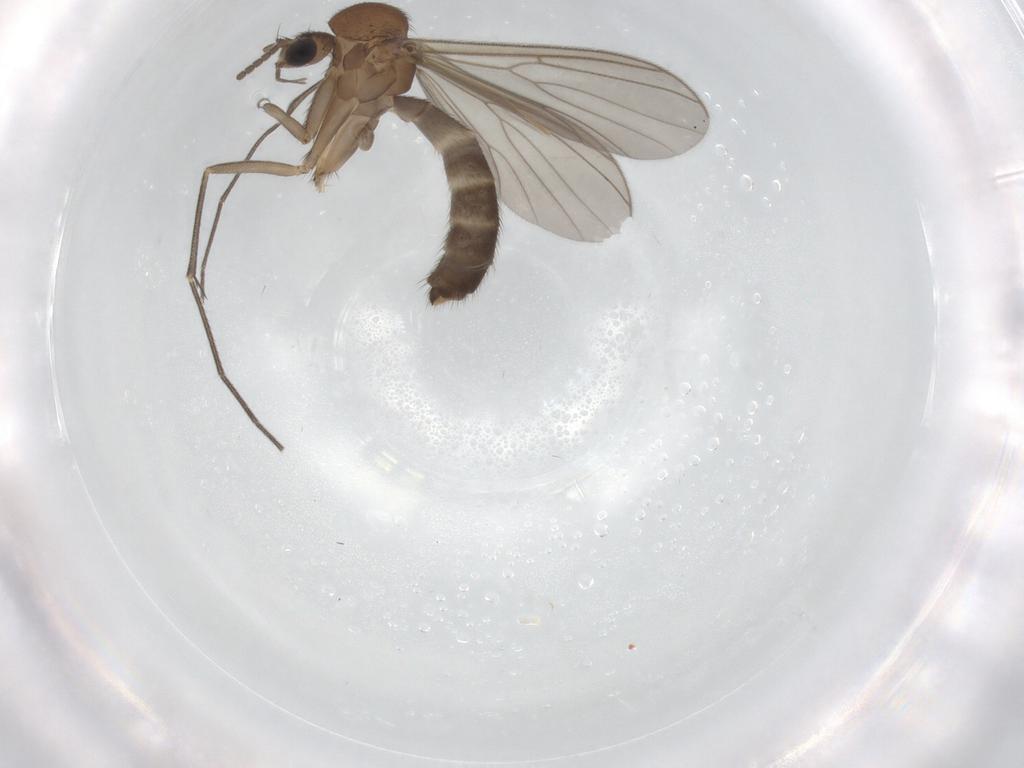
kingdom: Animalia
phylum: Arthropoda
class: Insecta
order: Diptera
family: Mycetophilidae
